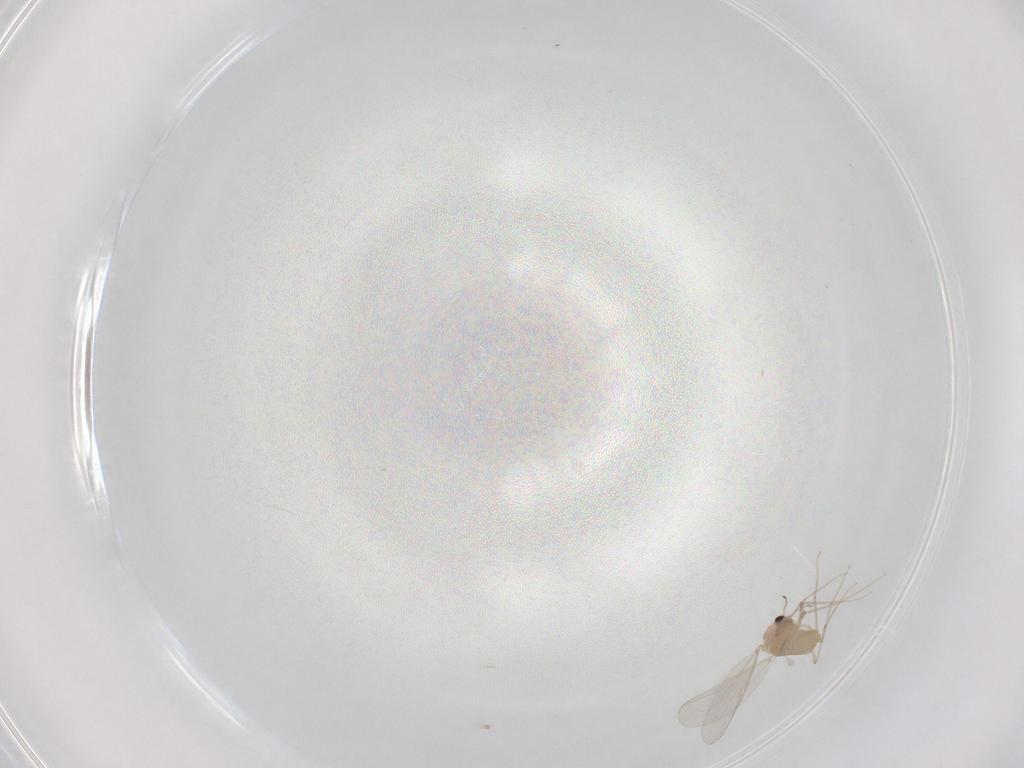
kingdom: Animalia
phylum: Arthropoda
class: Insecta
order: Diptera
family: Chironomidae
